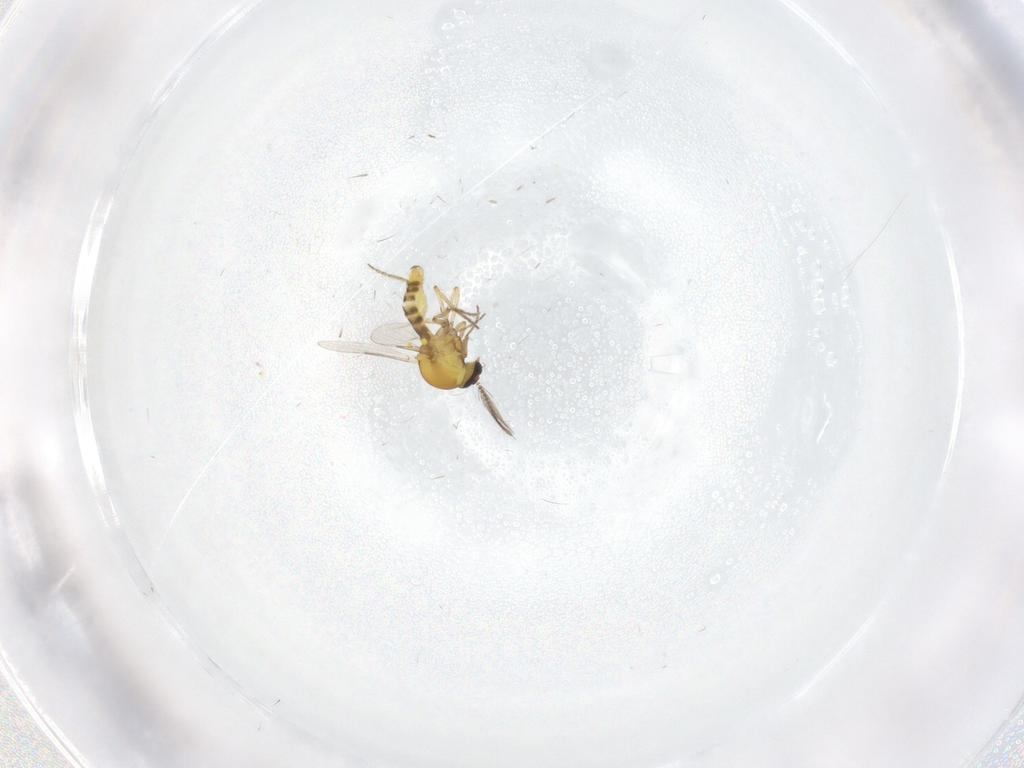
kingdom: Animalia
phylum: Arthropoda
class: Insecta
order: Diptera
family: Ceratopogonidae
